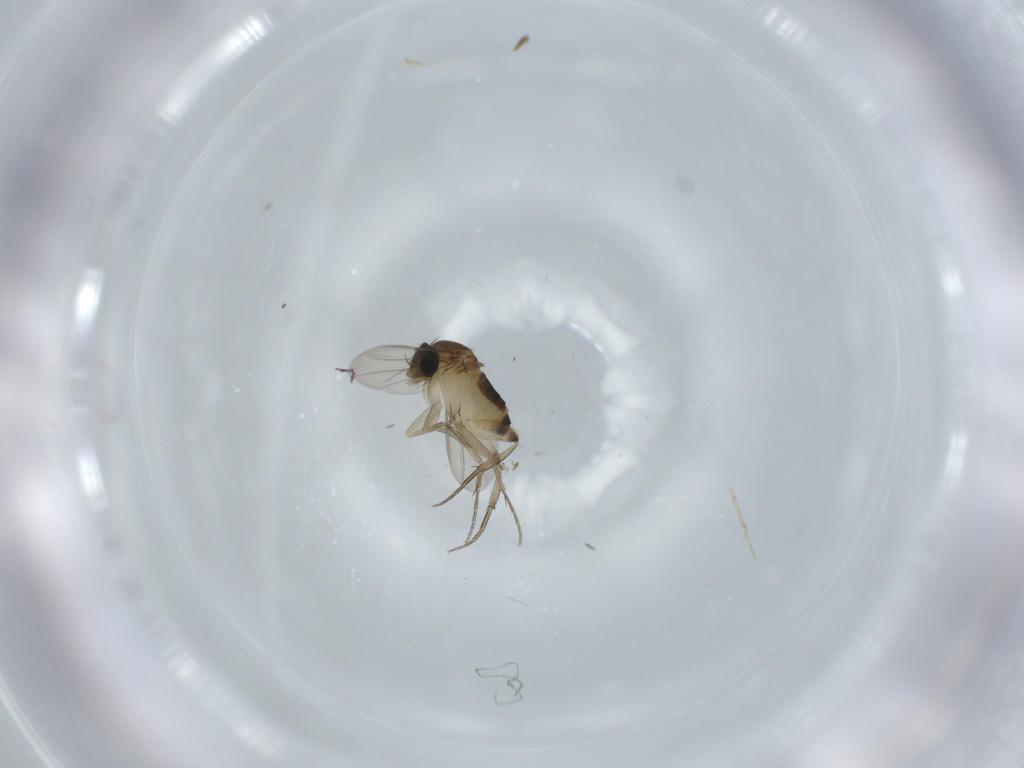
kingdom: Animalia
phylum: Arthropoda
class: Insecta
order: Diptera
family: Phoridae
